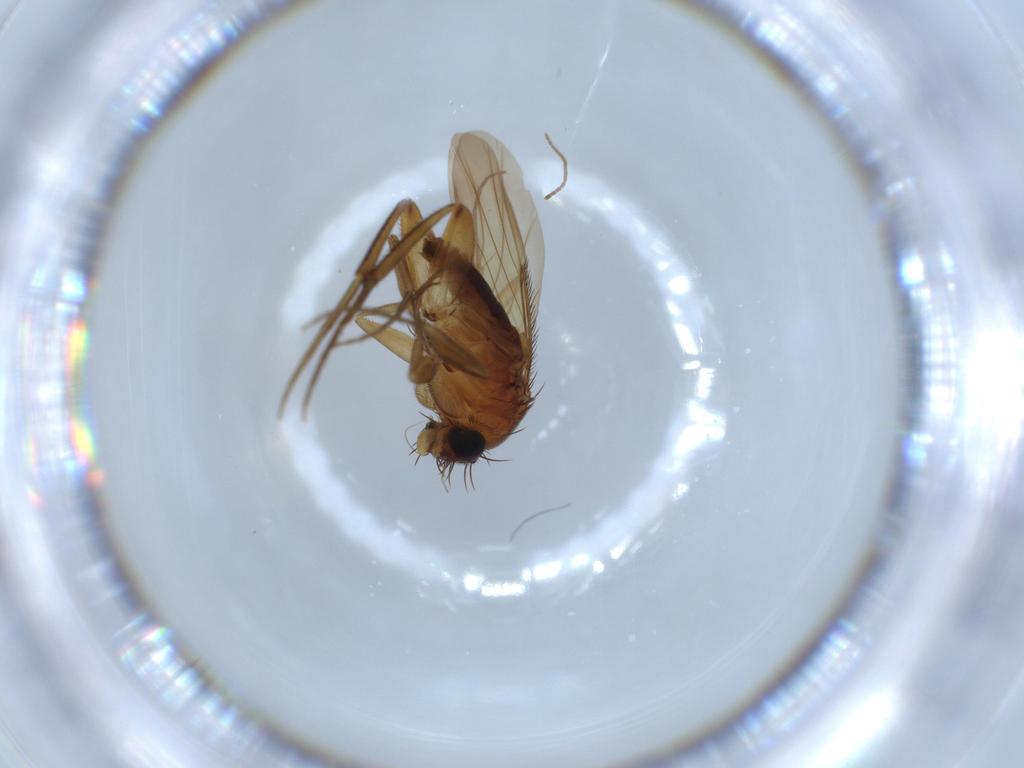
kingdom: Animalia
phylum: Arthropoda
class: Insecta
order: Diptera
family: Phoridae
